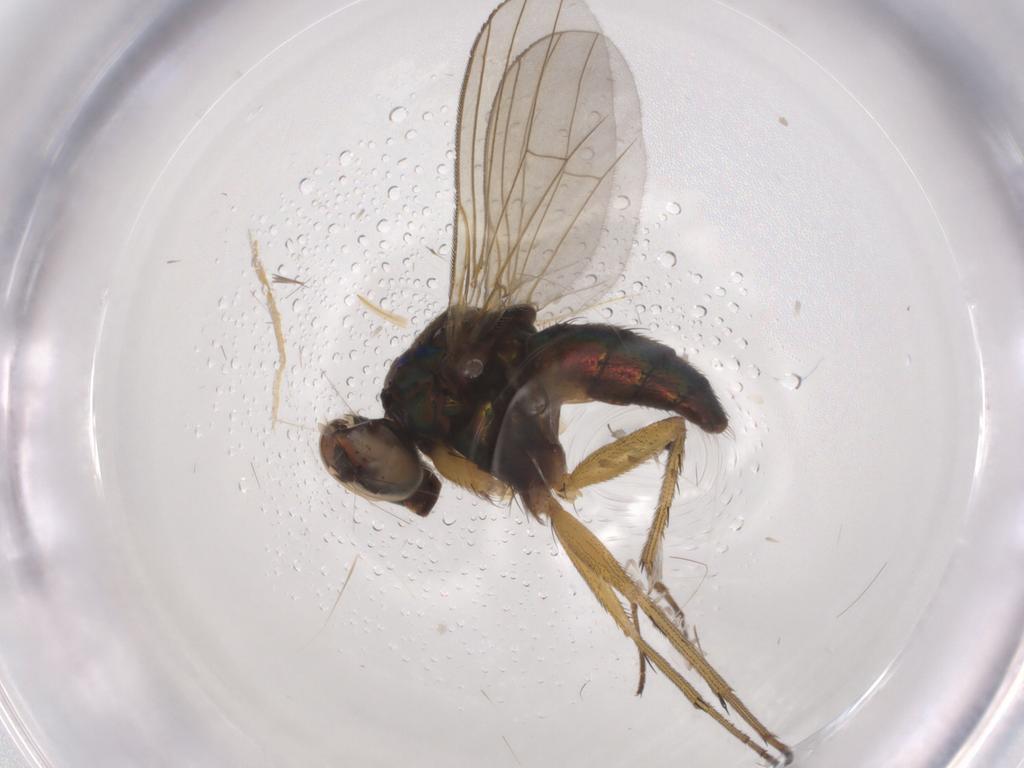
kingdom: Animalia
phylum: Arthropoda
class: Insecta
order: Diptera
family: Dolichopodidae
